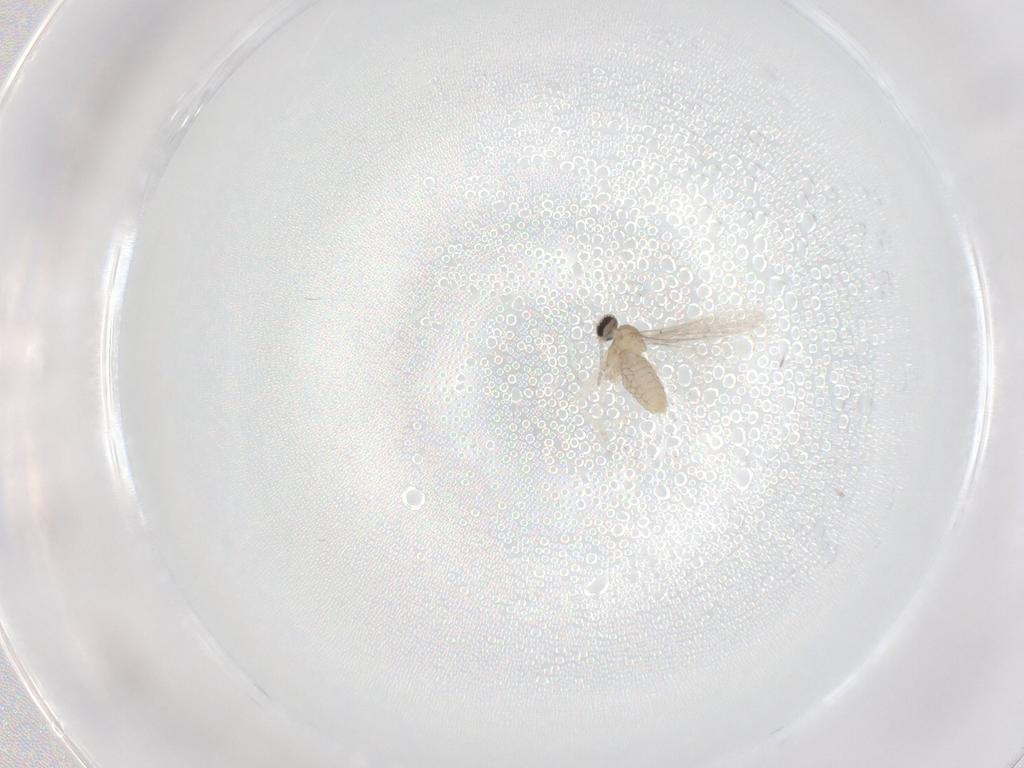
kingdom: Animalia
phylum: Arthropoda
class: Insecta
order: Diptera
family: Cecidomyiidae
